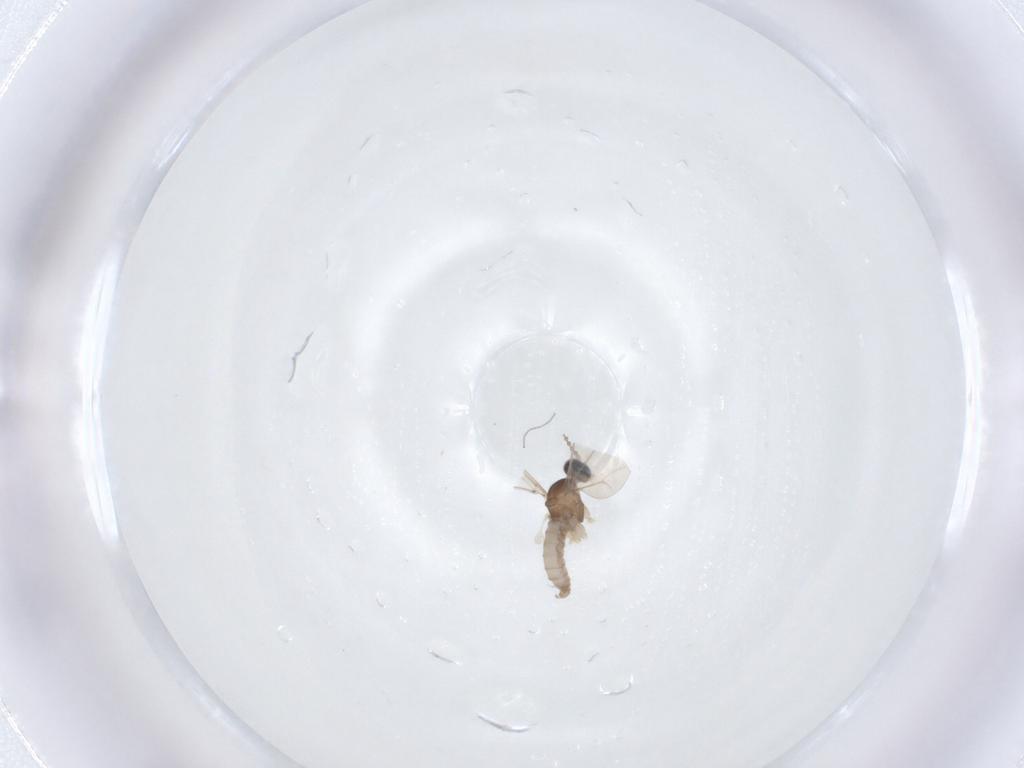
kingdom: Animalia
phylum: Arthropoda
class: Insecta
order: Diptera
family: Cecidomyiidae
